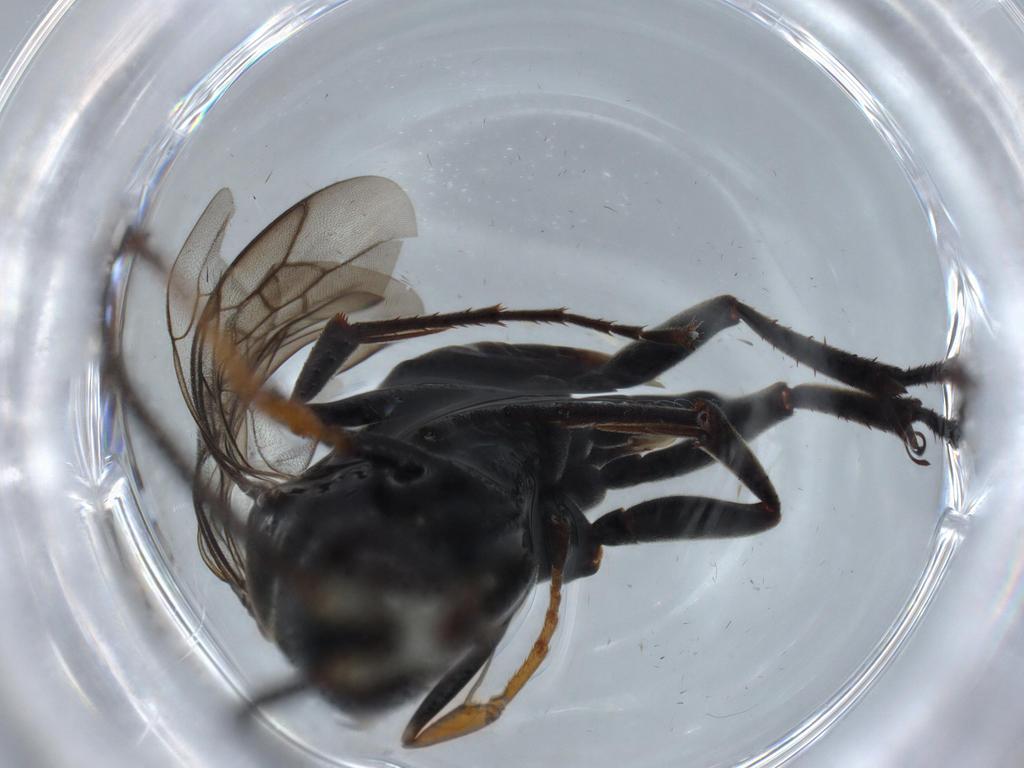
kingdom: Animalia
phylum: Arthropoda
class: Insecta
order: Hymenoptera
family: Pompilidae
